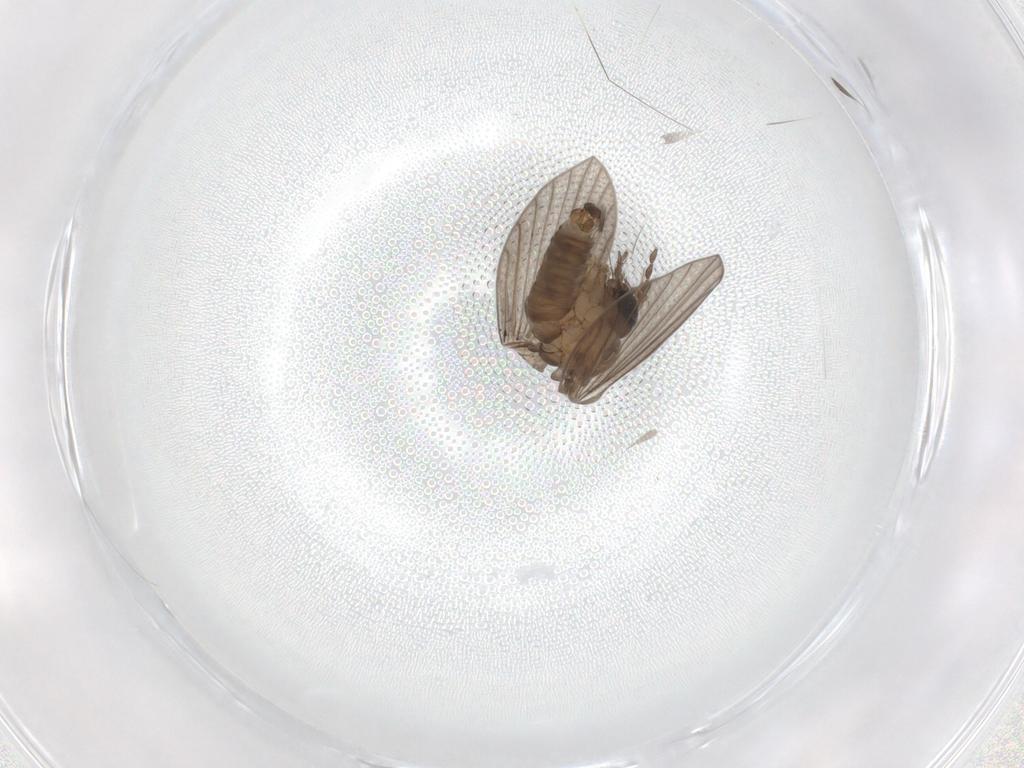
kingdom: Animalia
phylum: Arthropoda
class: Insecta
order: Diptera
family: Psychodidae
